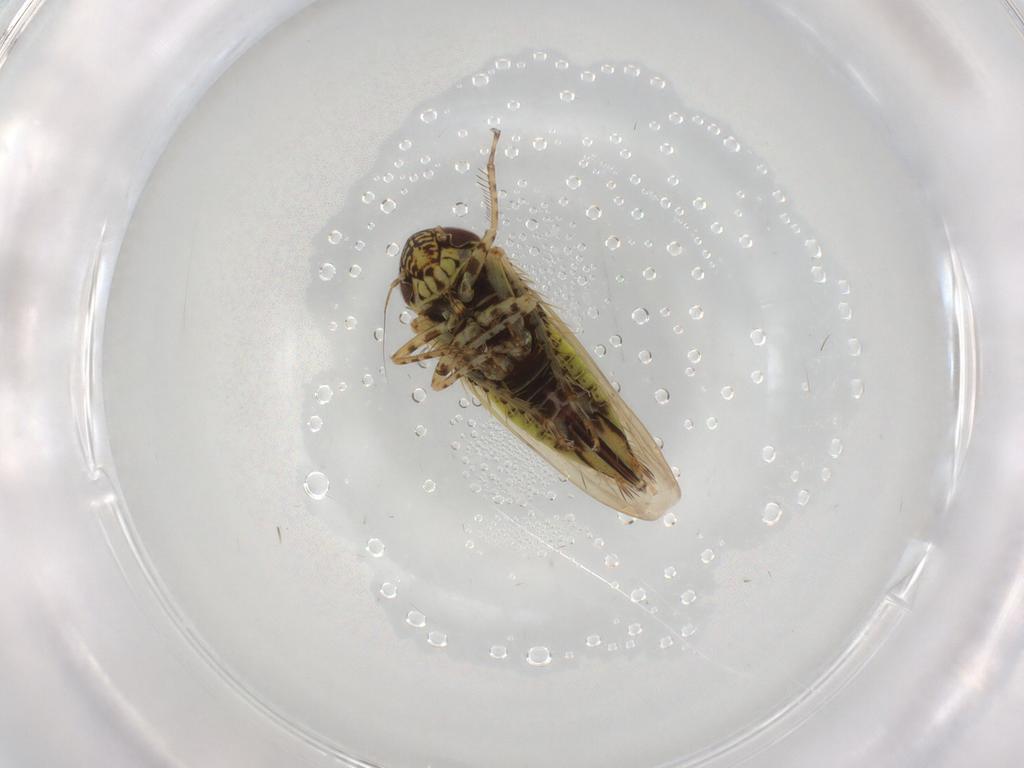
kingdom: Animalia
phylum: Arthropoda
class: Insecta
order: Hemiptera
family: Cicadellidae
